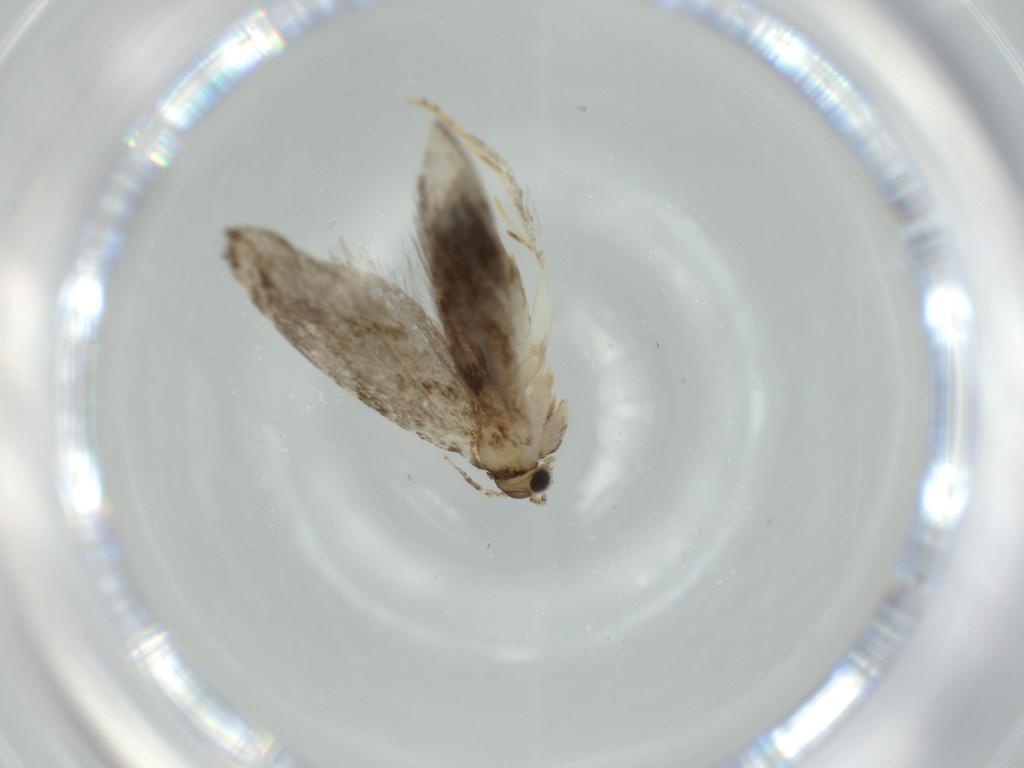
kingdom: Animalia
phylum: Arthropoda
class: Insecta
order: Lepidoptera
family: Tineidae
